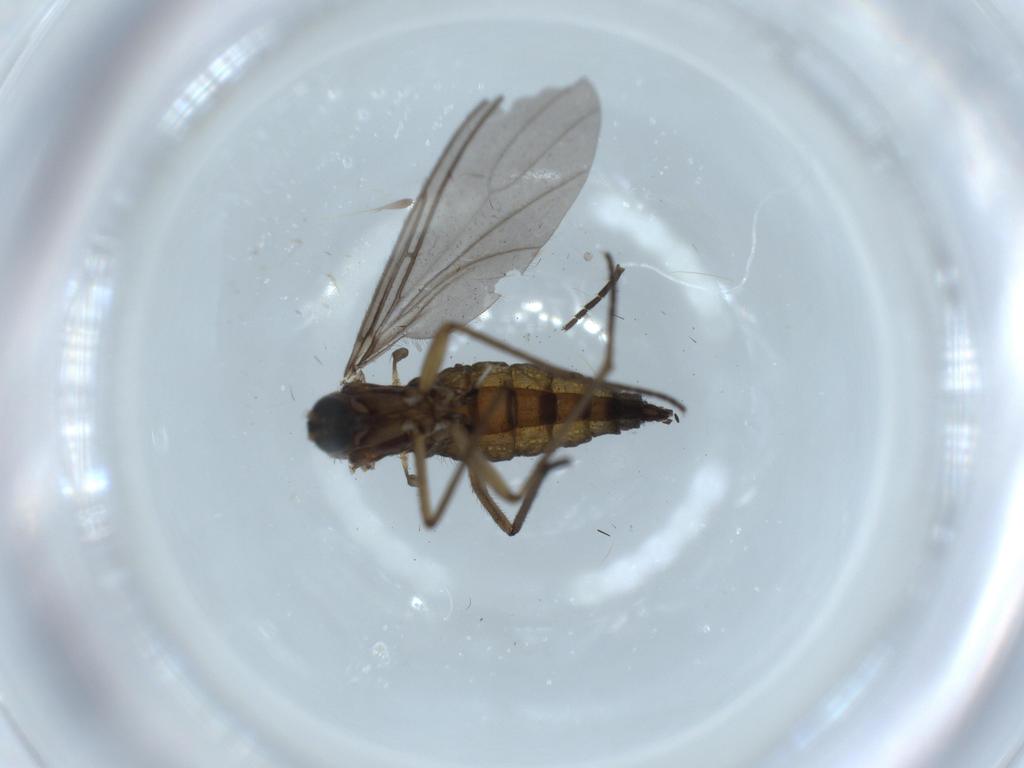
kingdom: Animalia
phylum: Arthropoda
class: Insecta
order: Diptera
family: Sciaridae
